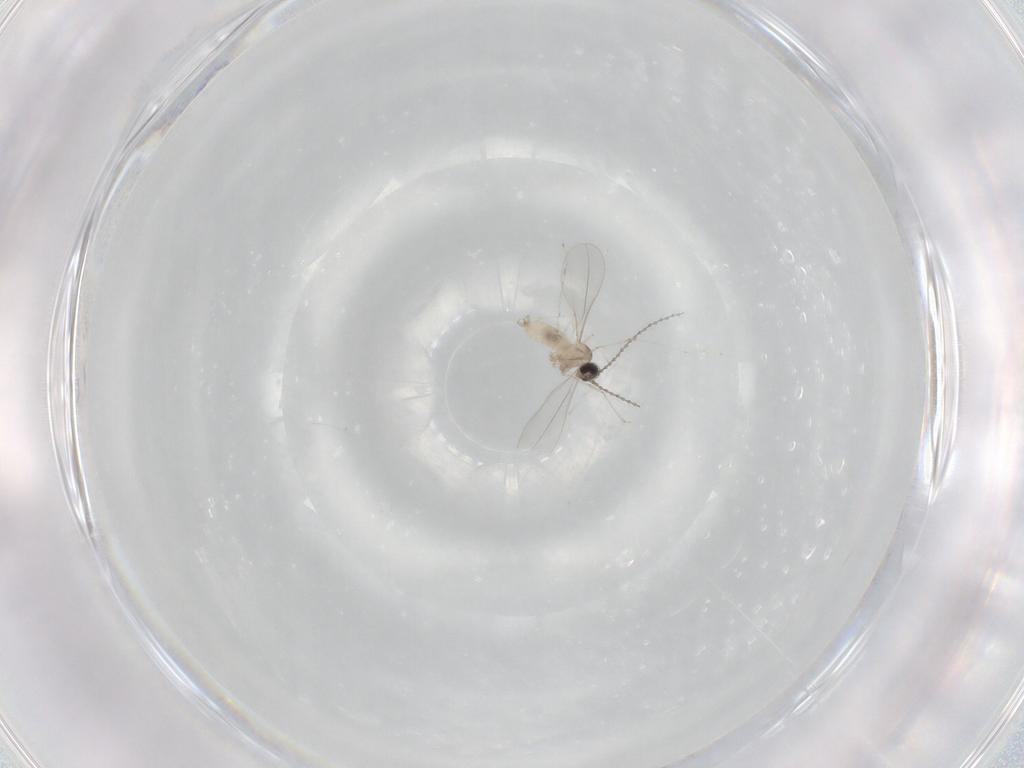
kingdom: Animalia
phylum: Arthropoda
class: Insecta
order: Diptera
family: Cecidomyiidae
